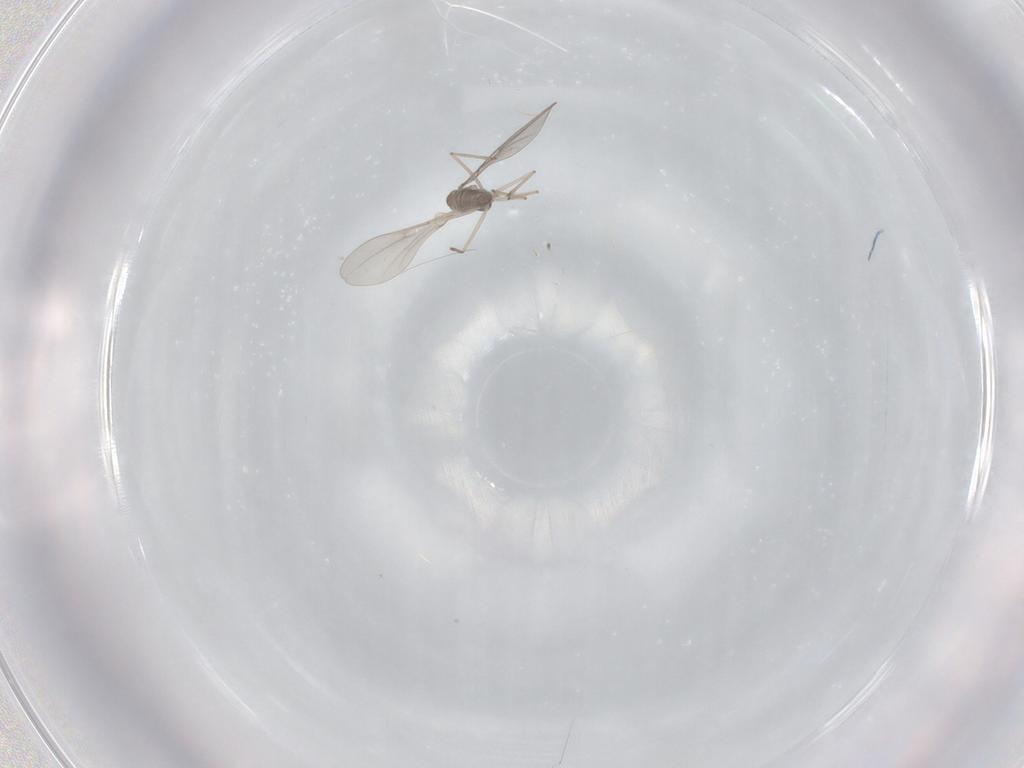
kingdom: Animalia
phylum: Arthropoda
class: Insecta
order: Diptera
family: Cecidomyiidae
